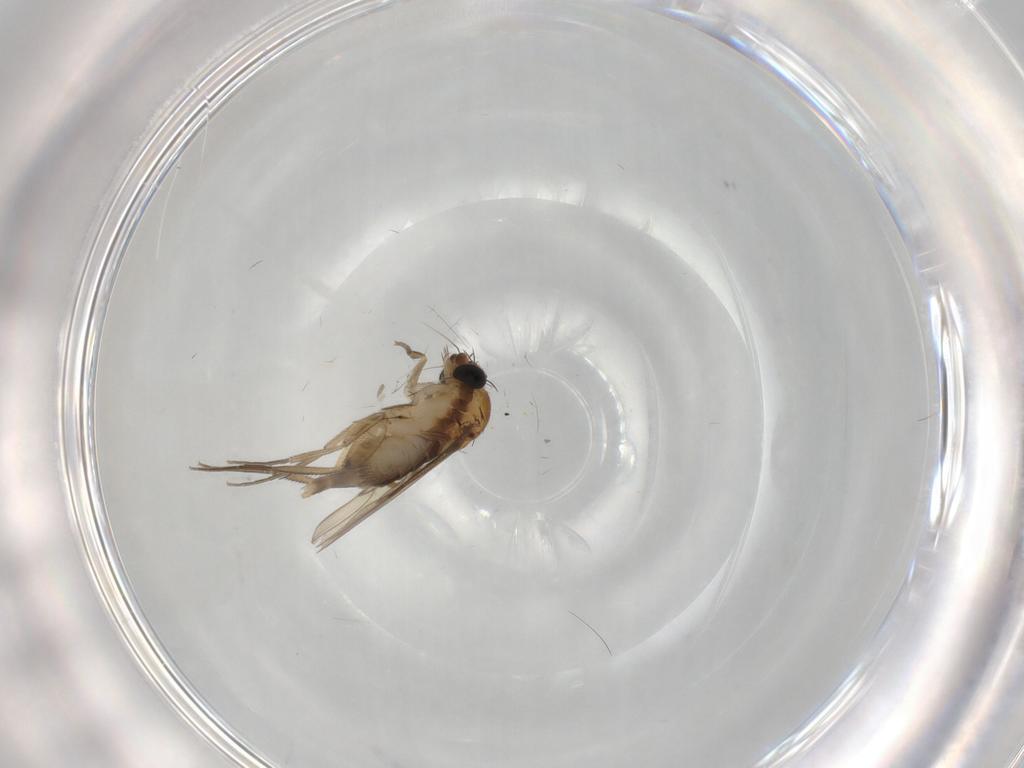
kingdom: Animalia
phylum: Arthropoda
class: Insecta
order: Diptera
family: Phoridae
